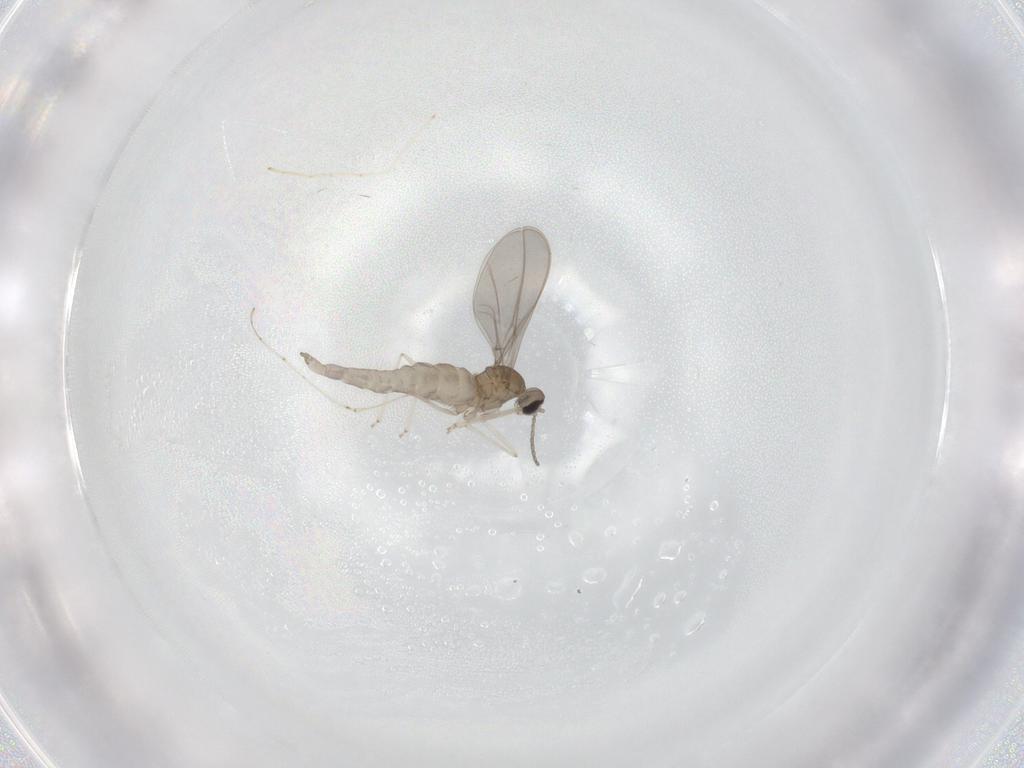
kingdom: Animalia
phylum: Arthropoda
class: Insecta
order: Diptera
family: Cecidomyiidae
